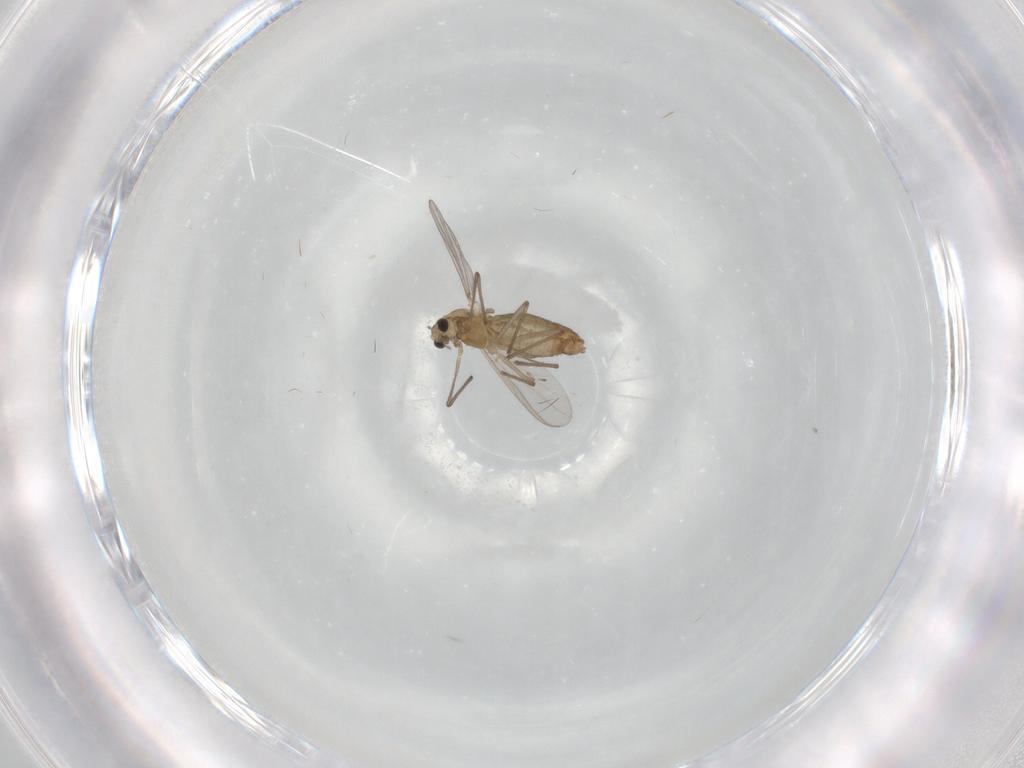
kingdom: Animalia
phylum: Arthropoda
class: Insecta
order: Diptera
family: Chironomidae
